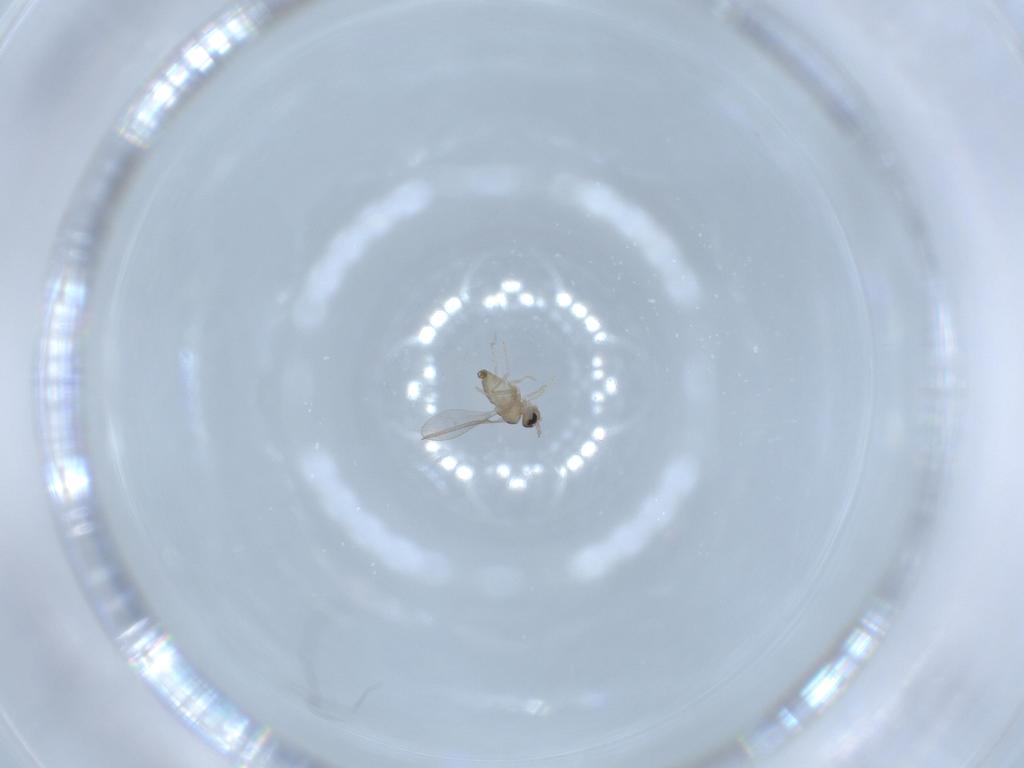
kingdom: Animalia
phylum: Arthropoda
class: Insecta
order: Diptera
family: Cecidomyiidae
